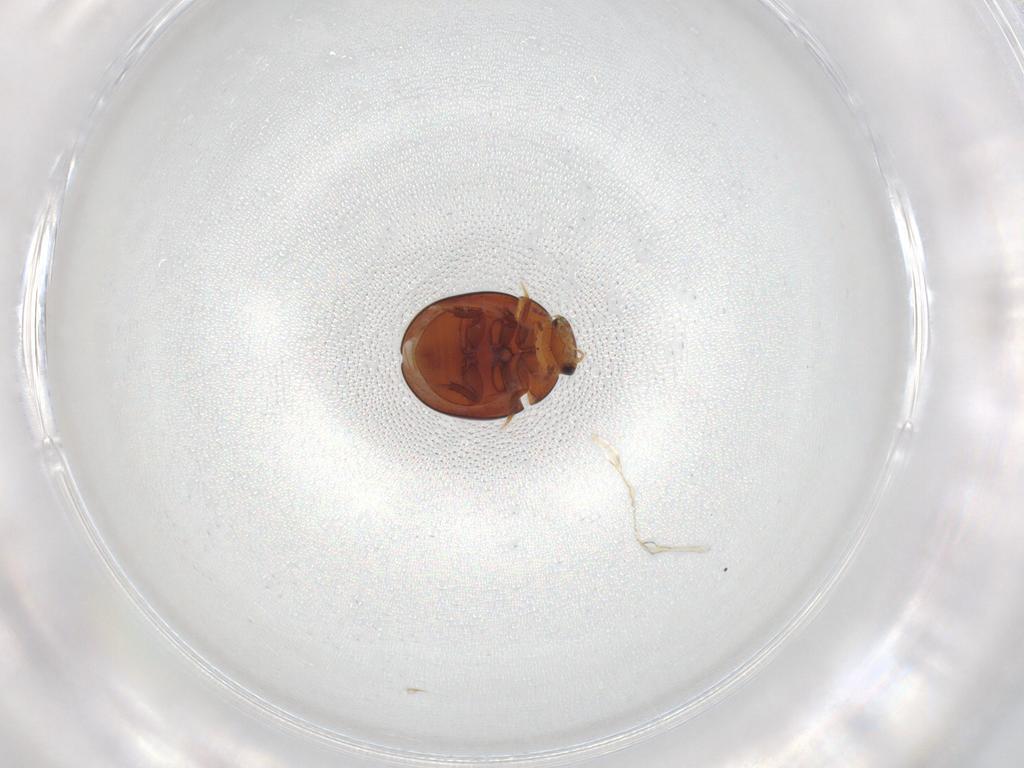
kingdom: Animalia
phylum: Arthropoda
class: Insecta
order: Coleoptera
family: Hydrophilidae
